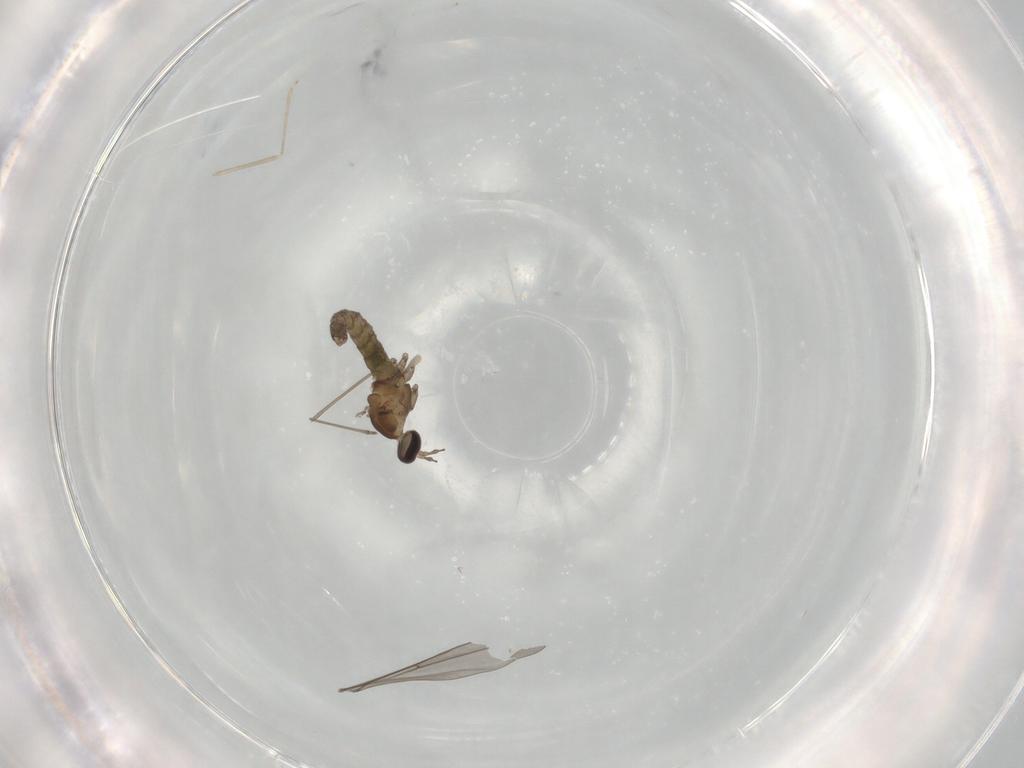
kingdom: Animalia
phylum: Arthropoda
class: Insecta
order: Diptera
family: Cecidomyiidae
